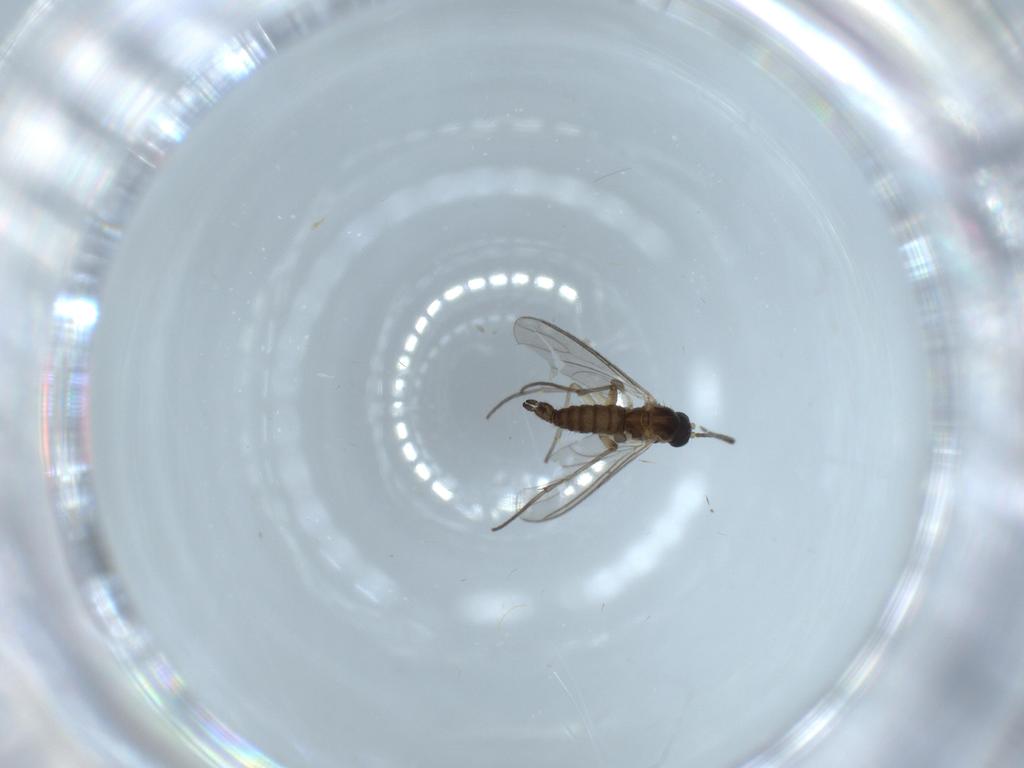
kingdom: Animalia
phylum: Arthropoda
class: Insecta
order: Diptera
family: Sciaridae
